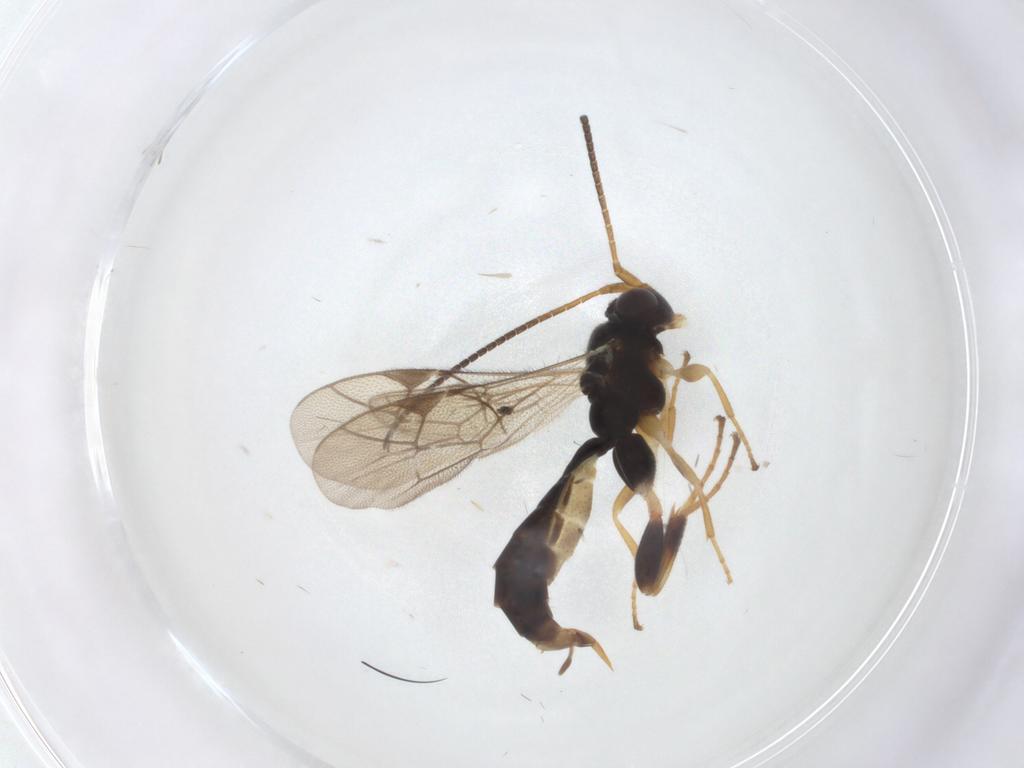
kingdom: Animalia
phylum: Arthropoda
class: Insecta
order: Hymenoptera
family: Ichneumonidae
